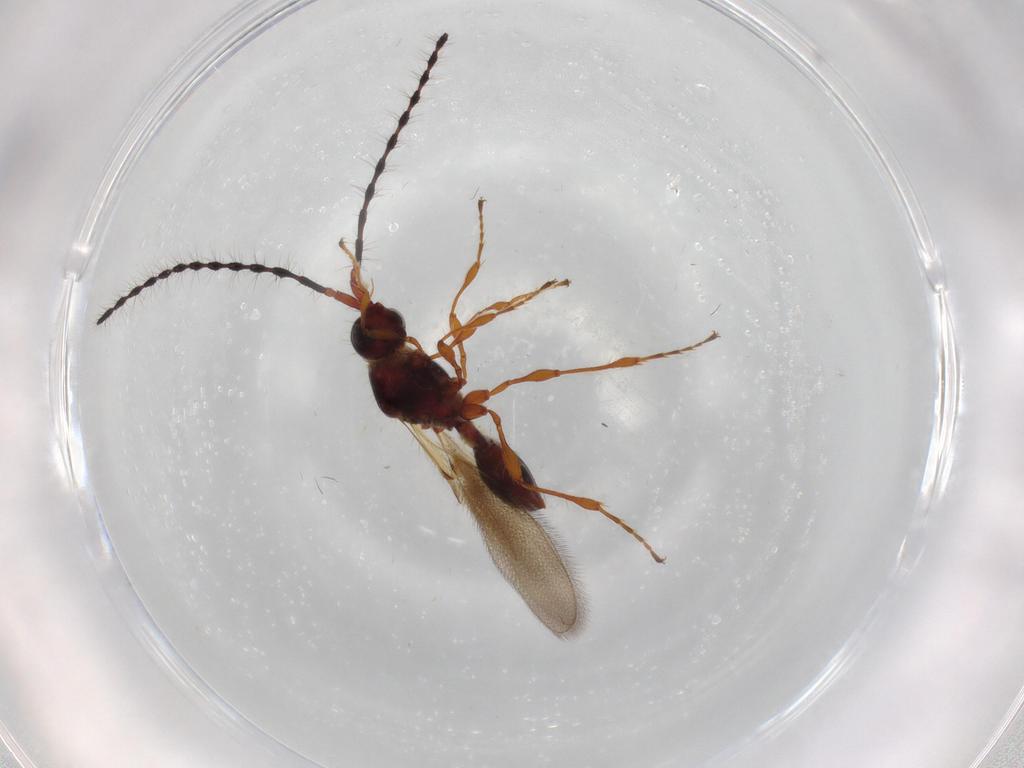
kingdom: Animalia
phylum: Arthropoda
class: Insecta
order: Hymenoptera
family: Diapriidae
